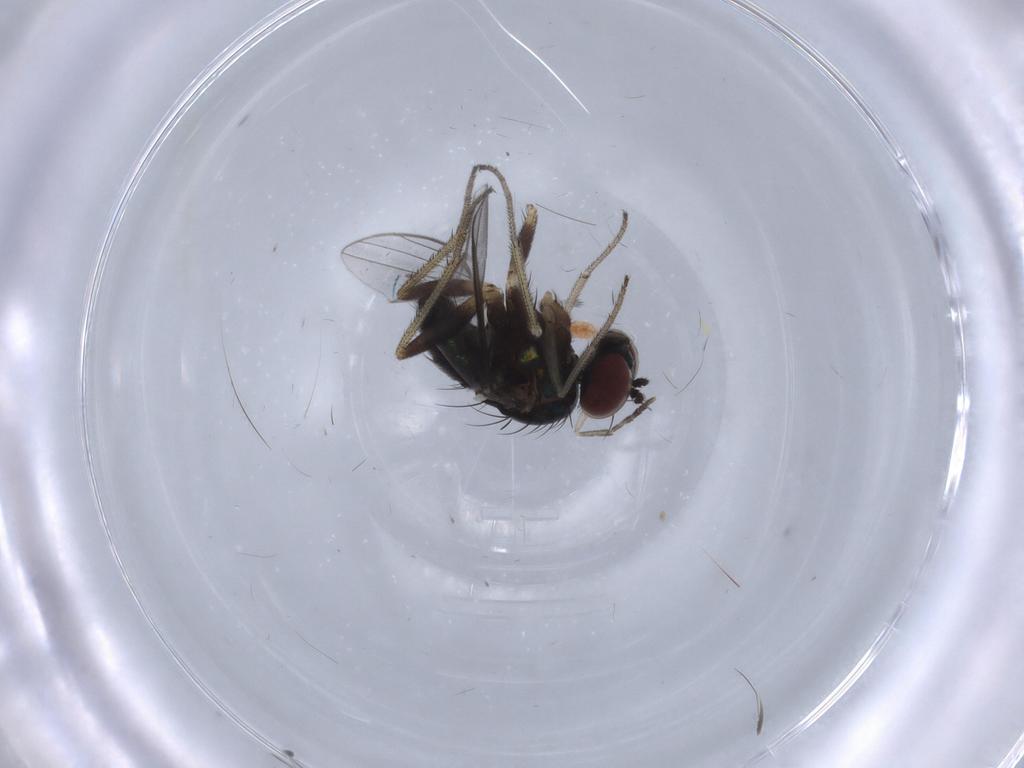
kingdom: Animalia
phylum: Arthropoda
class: Insecta
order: Diptera
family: Dolichopodidae
